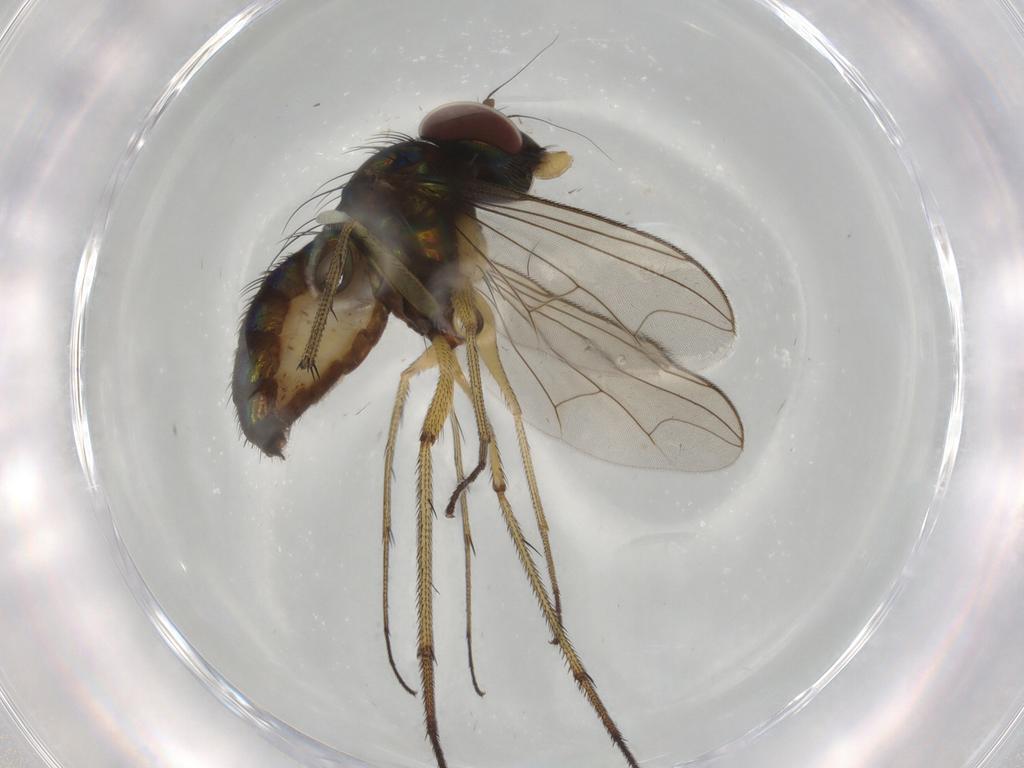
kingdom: Animalia
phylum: Arthropoda
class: Insecta
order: Diptera
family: Dolichopodidae
